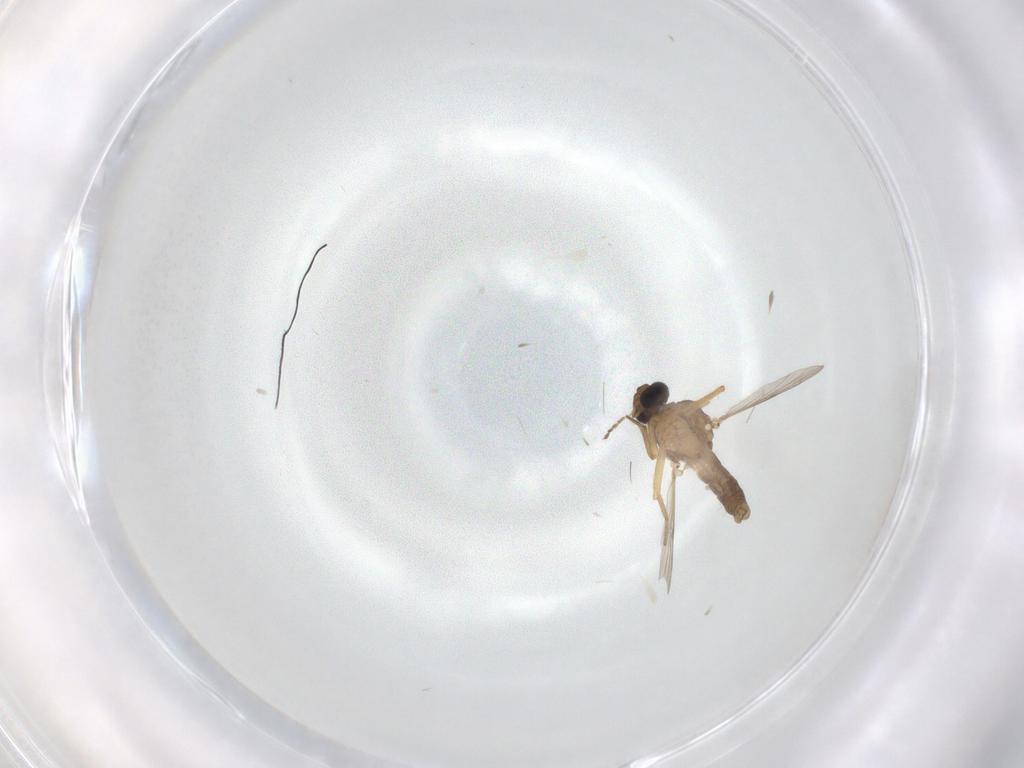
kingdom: Animalia
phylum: Arthropoda
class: Insecta
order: Diptera
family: Ceratopogonidae
